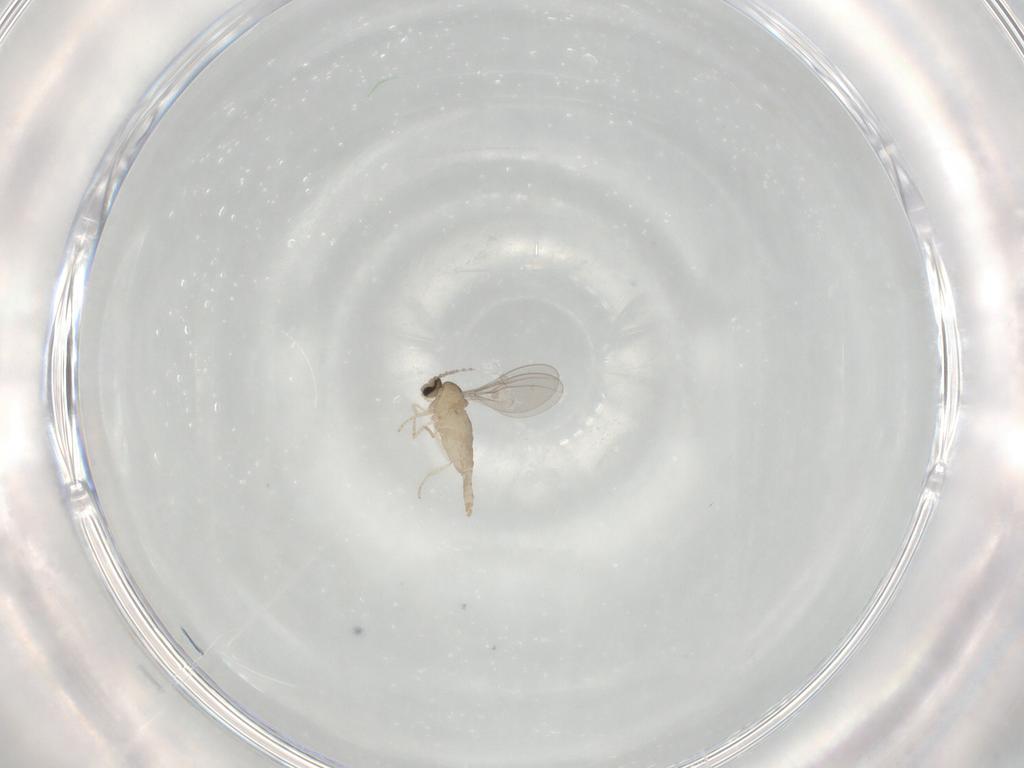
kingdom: Animalia
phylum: Arthropoda
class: Insecta
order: Diptera
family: Cecidomyiidae
